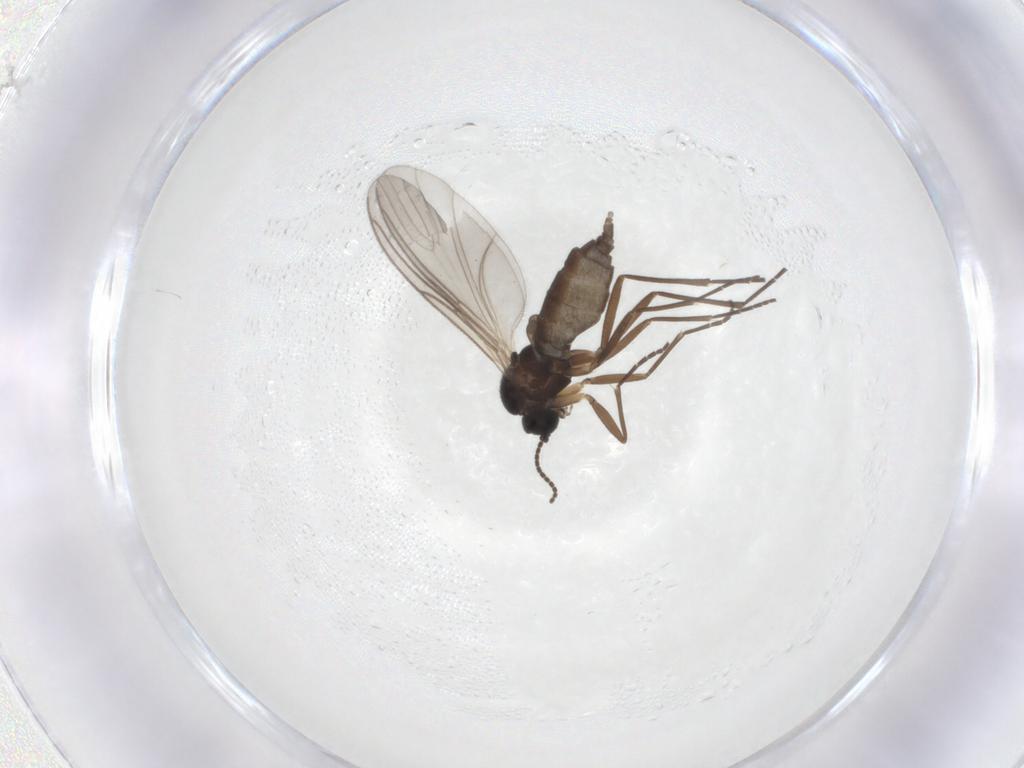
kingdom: Animalia
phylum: Arthropoda
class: Insecta
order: Diptera
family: Sciaridae
